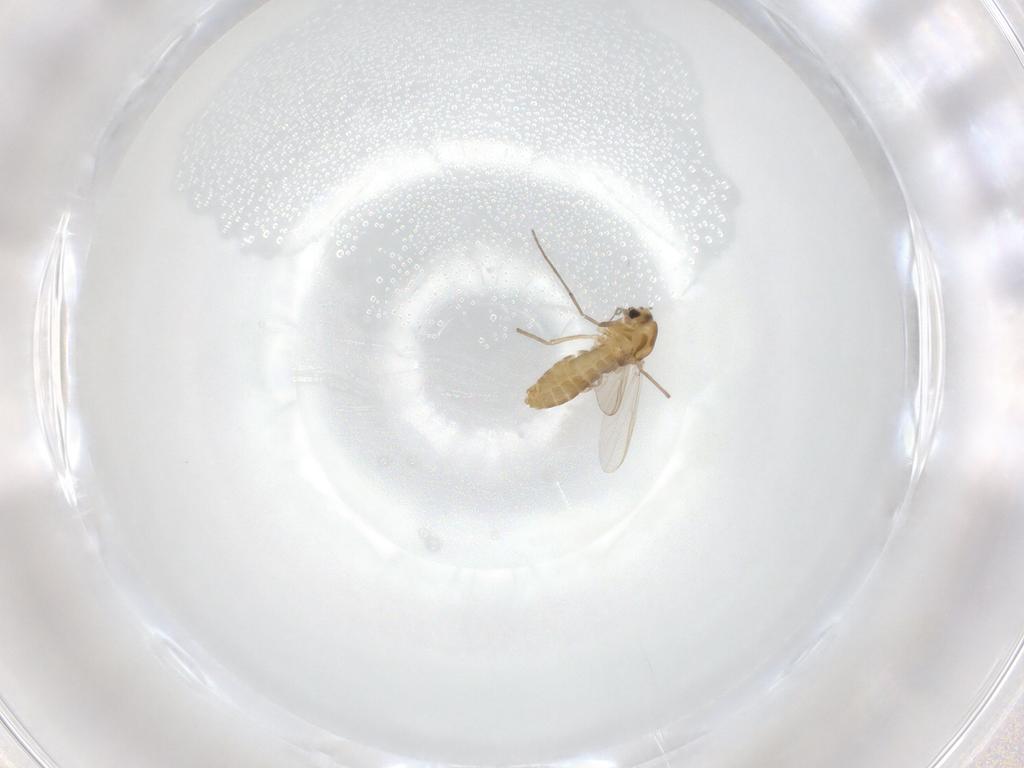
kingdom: Animalia
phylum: Arthropoda
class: Insecta
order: Diptera
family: Chironomidae
